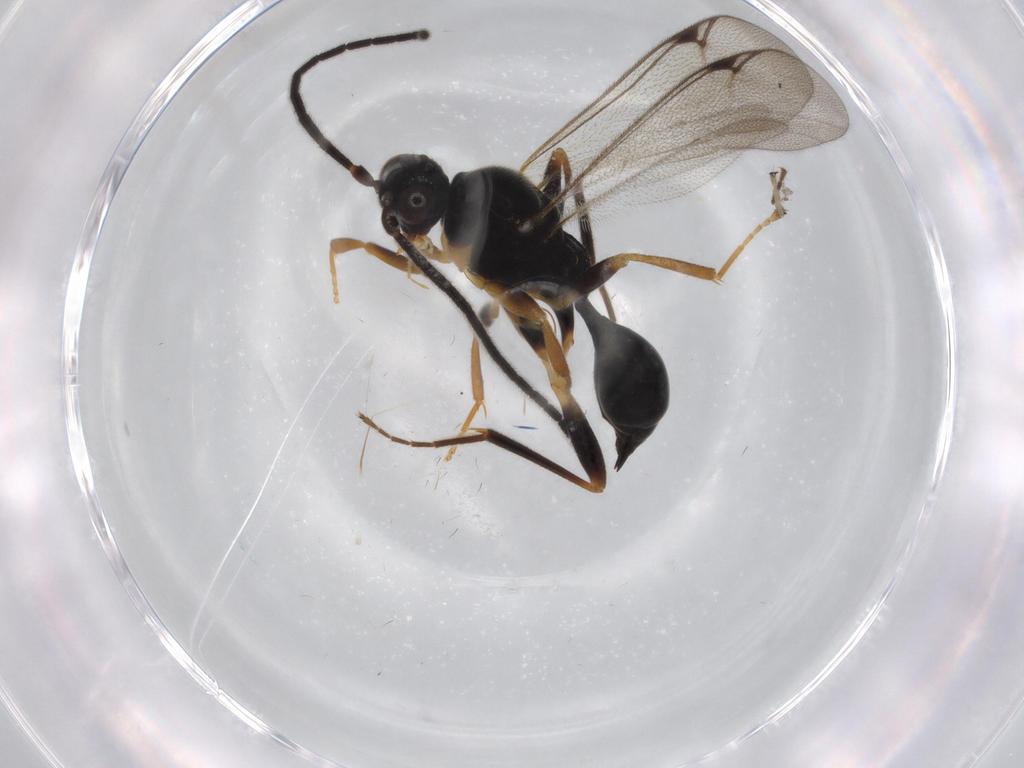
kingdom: Animalia
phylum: Arthropoda
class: Insecta
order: Hymenoptera
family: Proctotrupidae
